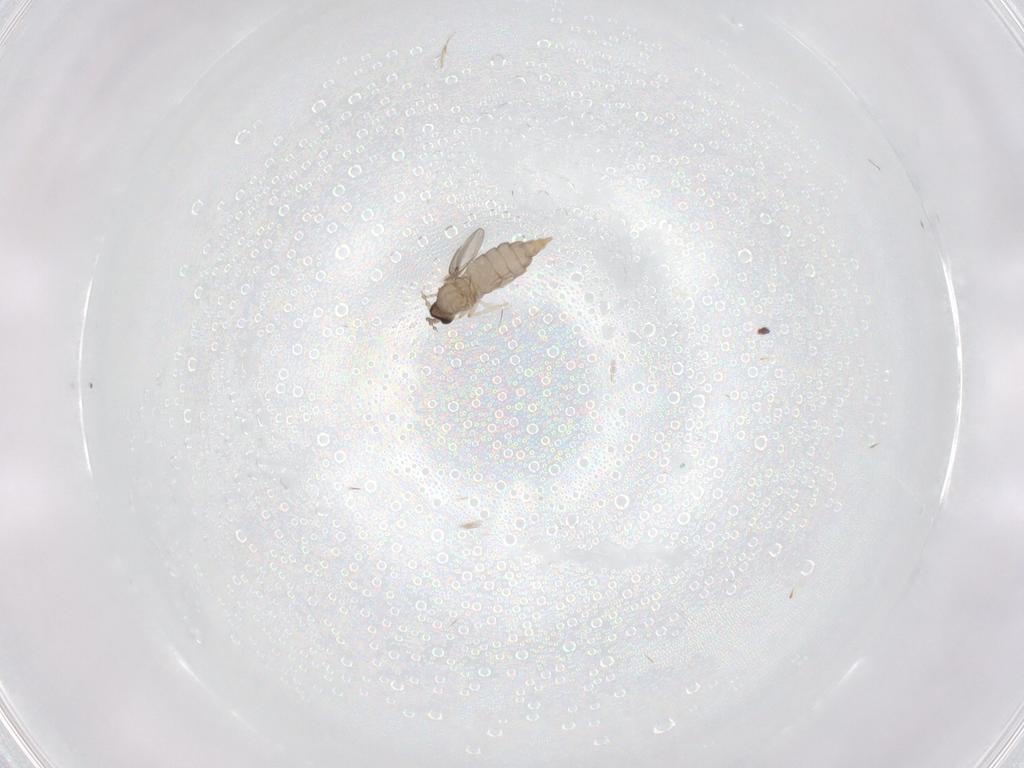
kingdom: Animalia
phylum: Arthropoda
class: Insecta
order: Diptera
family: Cecidomyiidae
